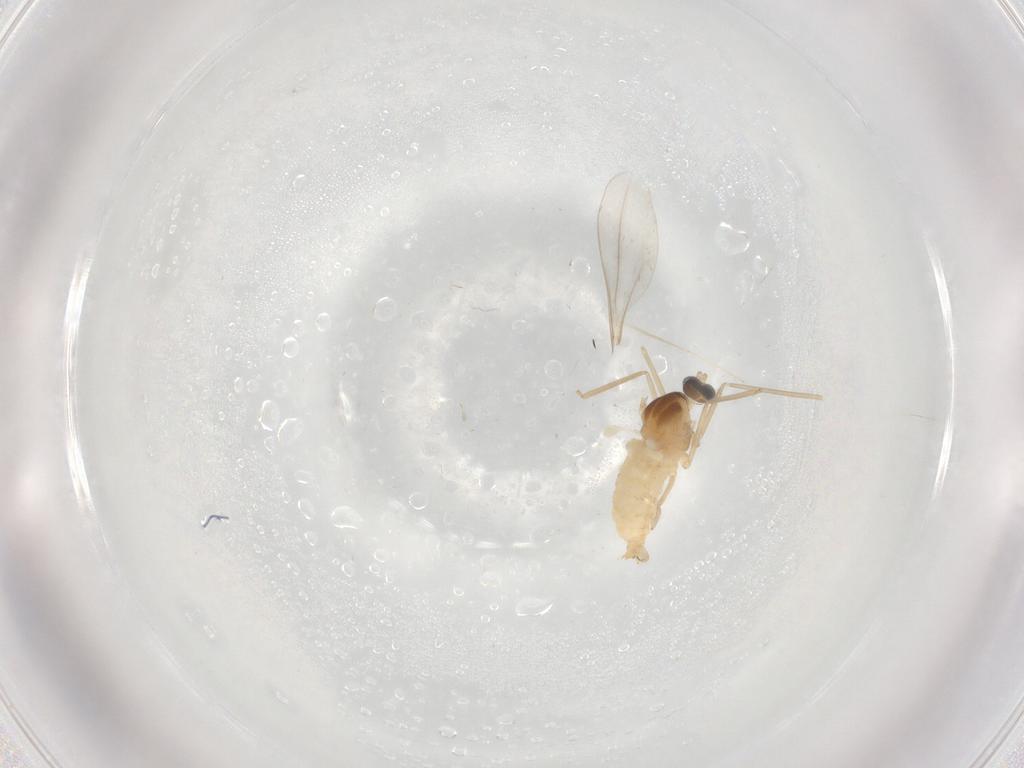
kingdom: Animalia
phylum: Arthropoda
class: Insecta
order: Diptera
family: Cecidomyiidae
